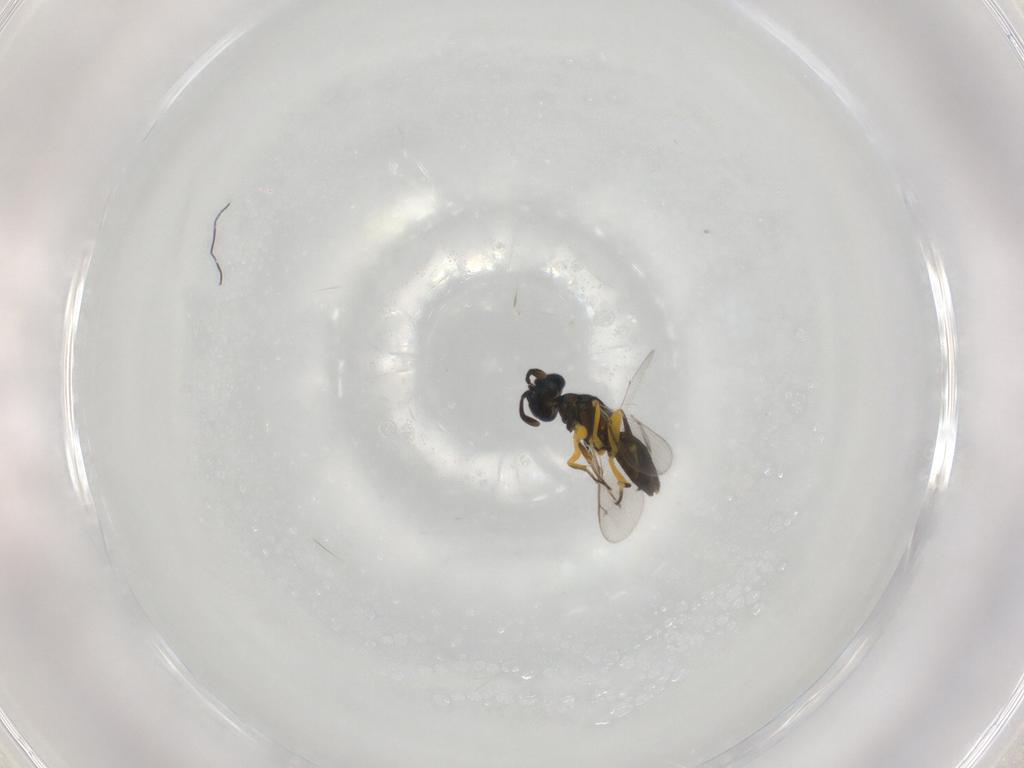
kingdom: Animalia
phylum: Arthropoda
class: Insecta
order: Hymenoptera
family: Eupelmidae
